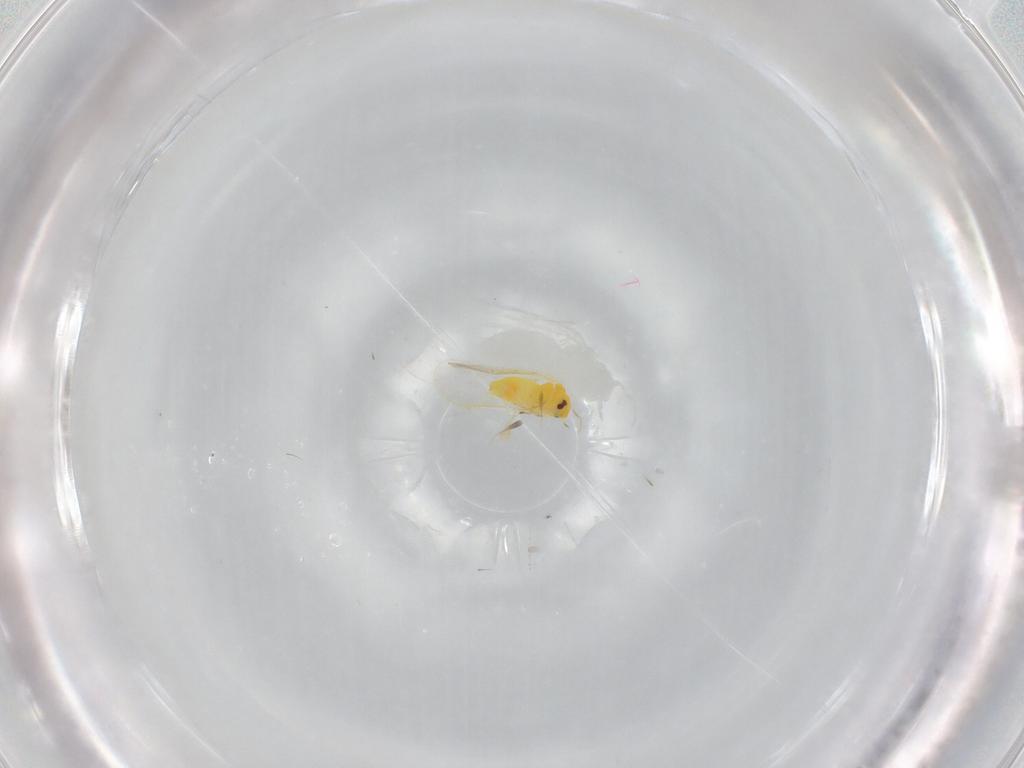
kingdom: Animalia
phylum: Arthropoda
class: Insecta
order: Hemiptera
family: Aleyrodidae
